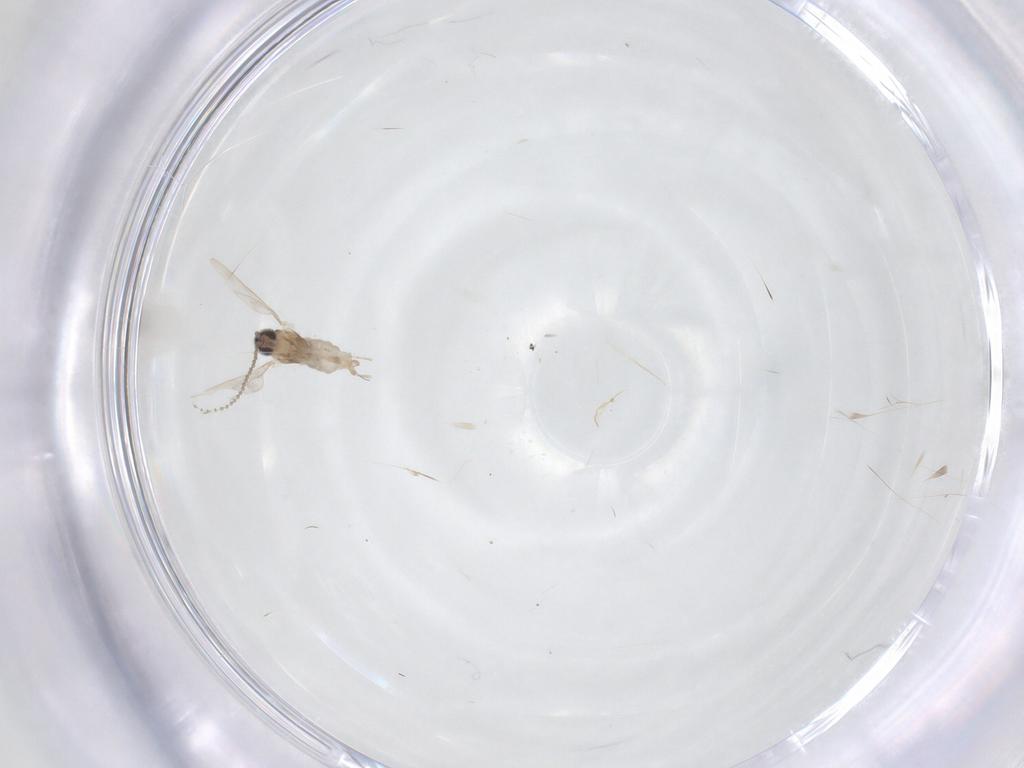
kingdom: Animalia
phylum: Arthropoda
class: Insecta
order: Diptera
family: Cecidomyiidae
